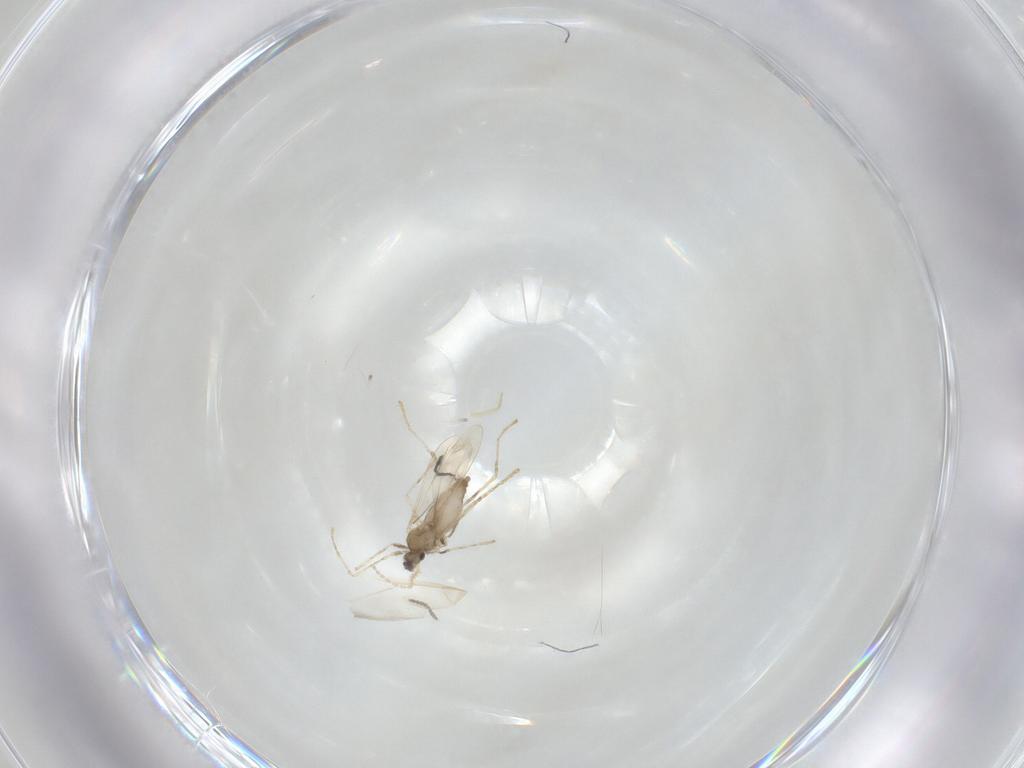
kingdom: Animalia
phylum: Arthropoda
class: Insecta
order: Diptera
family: Cecidomyiidae
